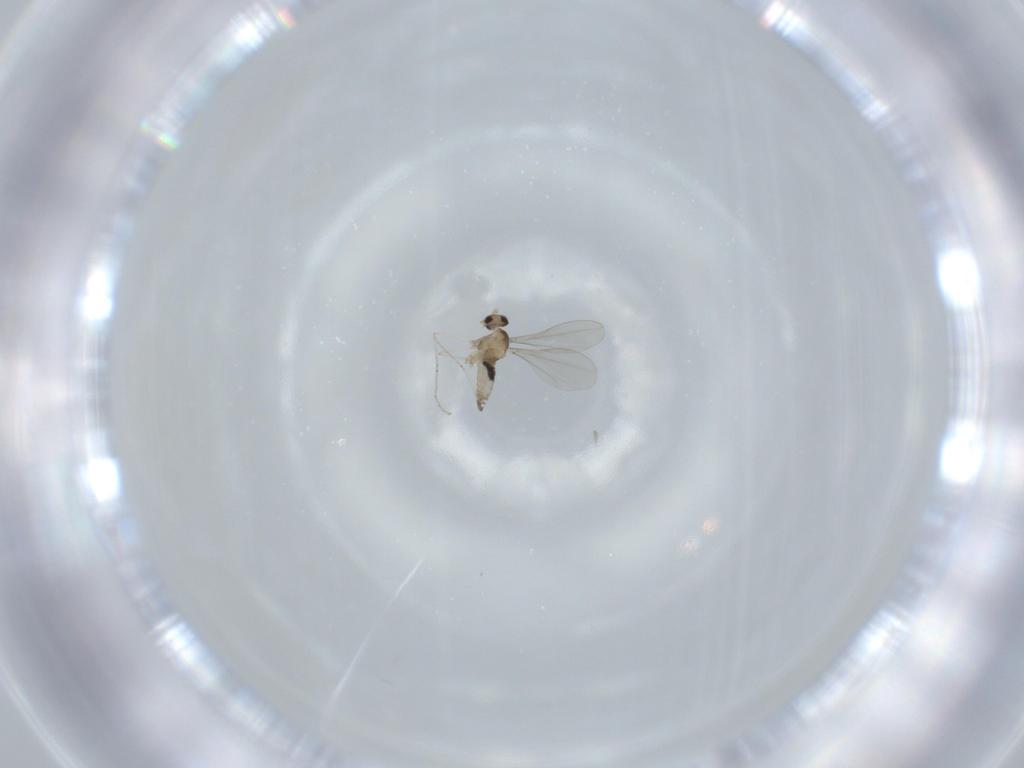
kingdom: Animalia
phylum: Arthropoda
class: Insecta
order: Diptera
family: Cecidomyiidae
